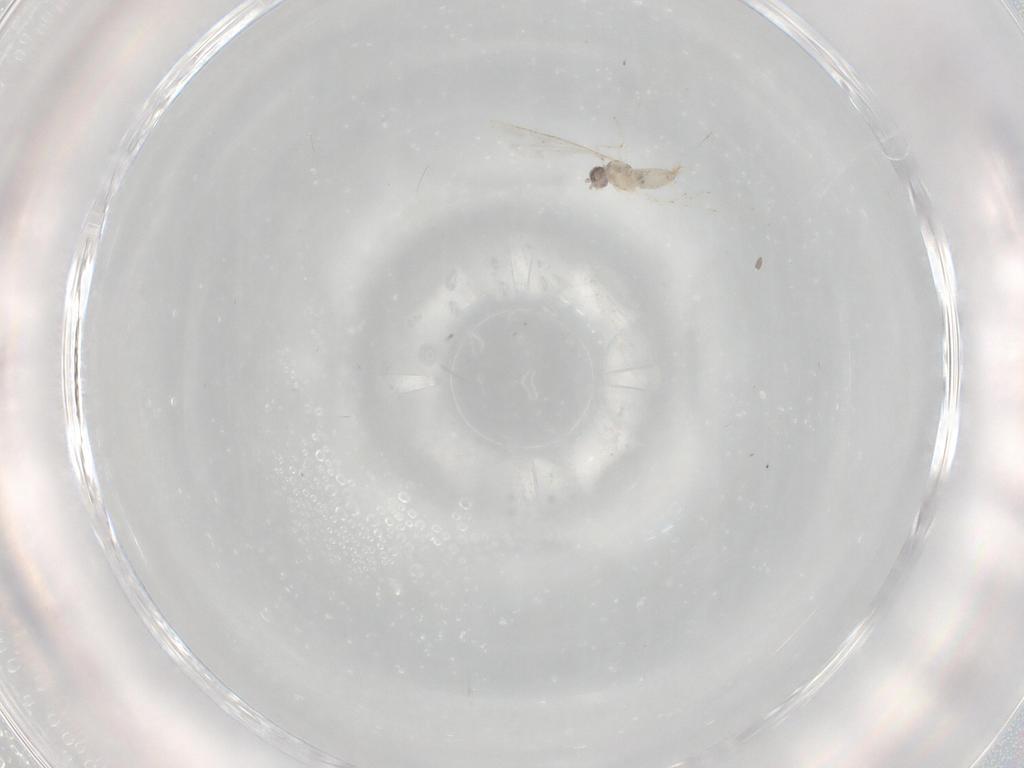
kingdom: Animalia
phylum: Arthropoda
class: Insecta
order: Diptera
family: Cecidomyiidae
